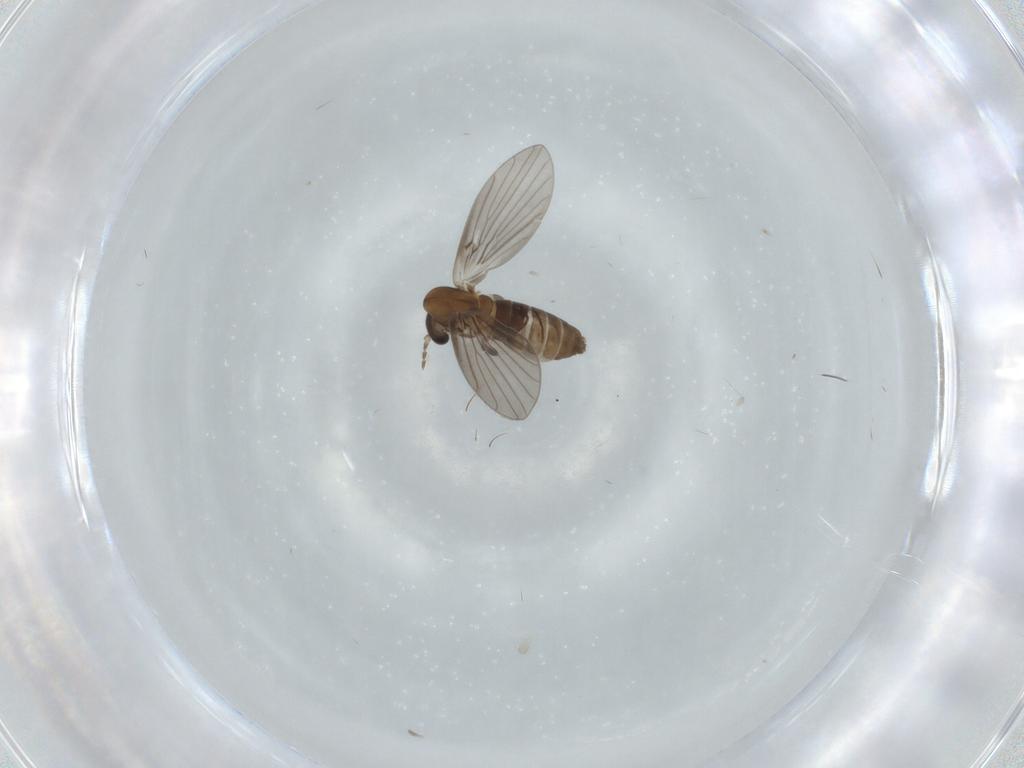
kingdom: Animalia
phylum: Arthropoda
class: Insecta
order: Diptera
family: Psychodidae
